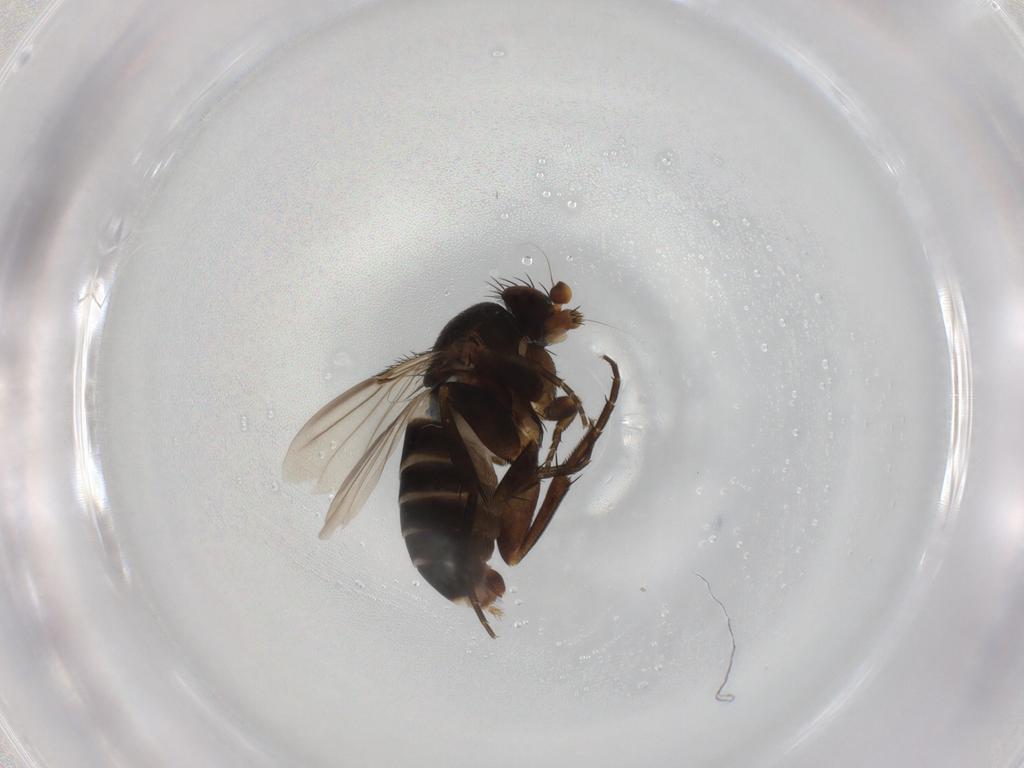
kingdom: Animalia
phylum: Arthropoda
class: Insecta
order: Diptera
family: Phoridae
